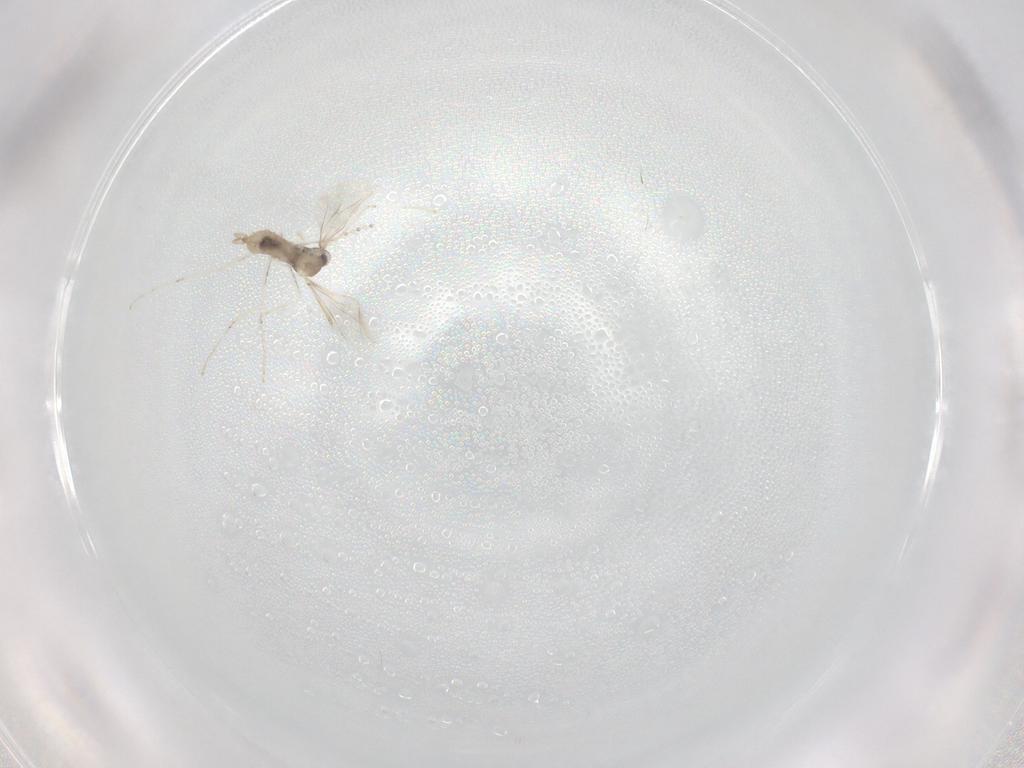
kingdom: Animalia
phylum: Arthropoda
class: Insecta
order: Diptera
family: Cecidomyiidae
